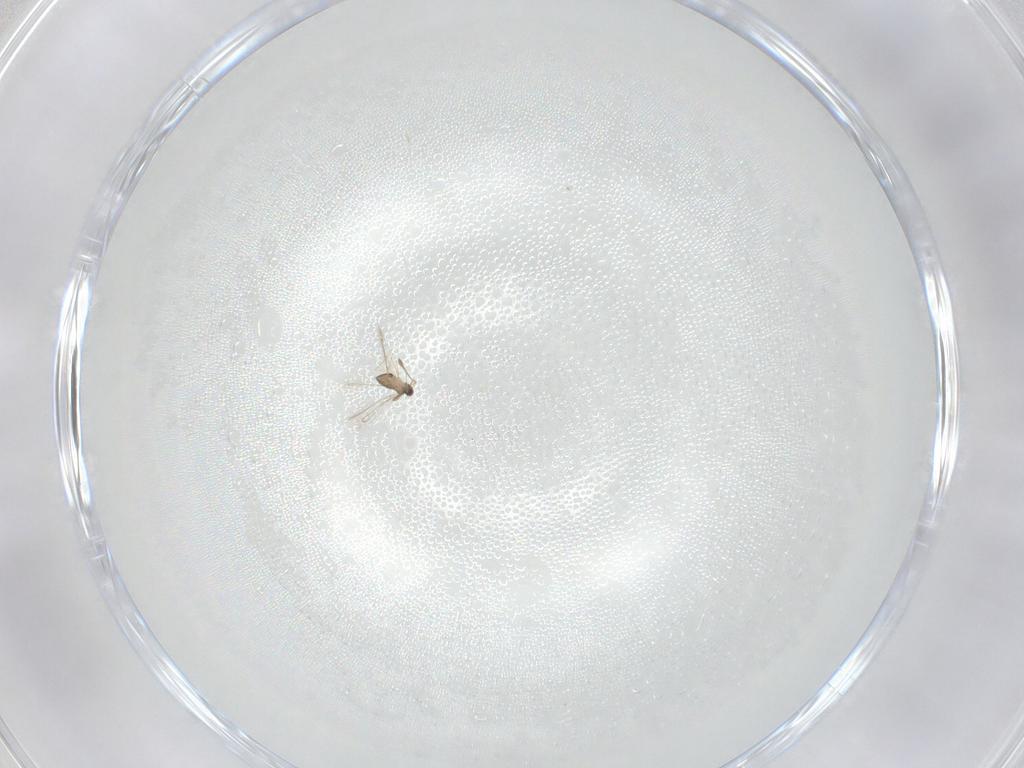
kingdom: Animalia
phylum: Arthropoda
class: Insecta
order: Hymenoptera
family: Mymaridae
